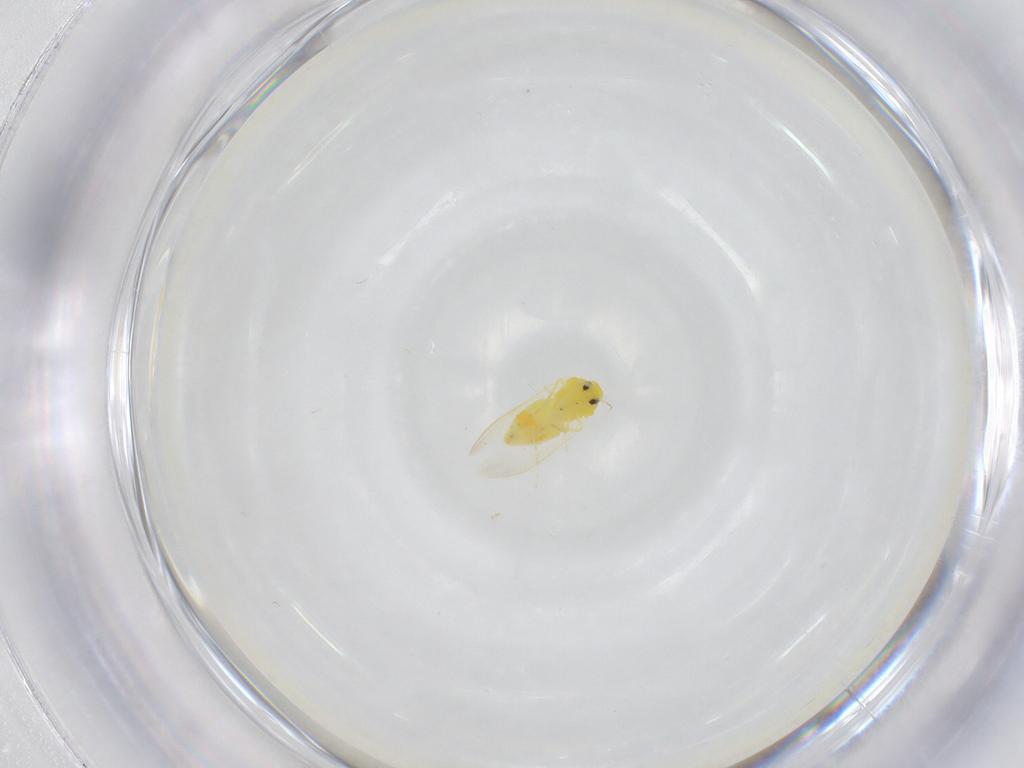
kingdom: Animalia
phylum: Arthropoda
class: Insecta
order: Hemiptera
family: Aleyrodidae
